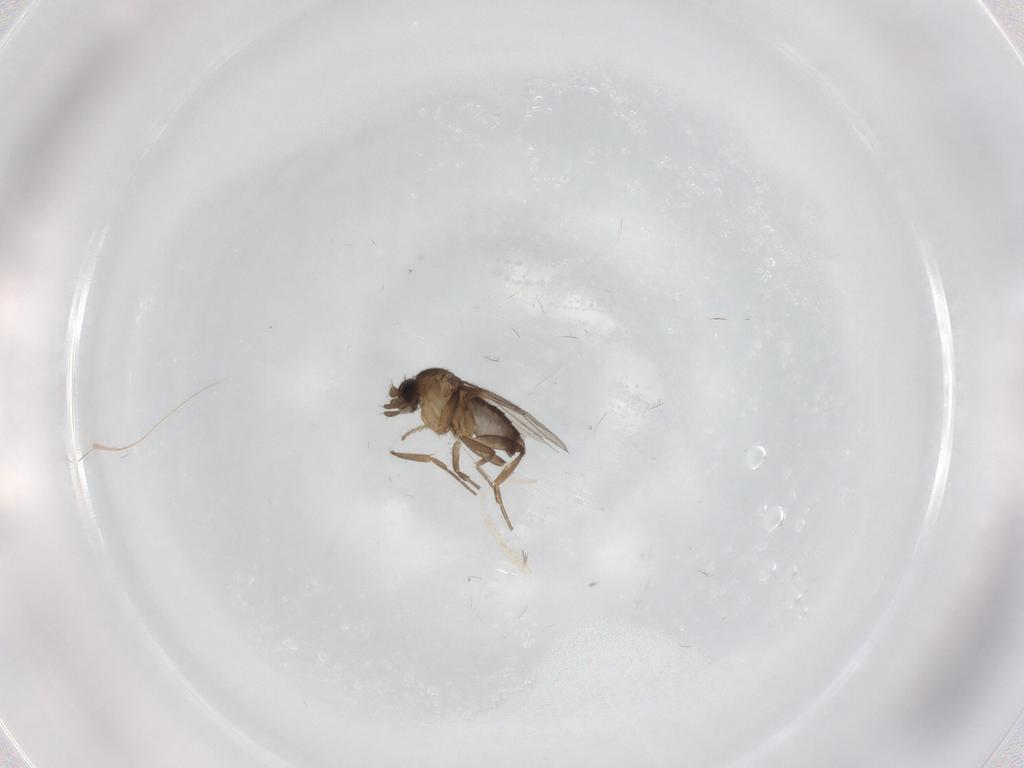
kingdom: Animalia
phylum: Arthropoda
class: Insecta
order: Diptera
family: Phoridae
